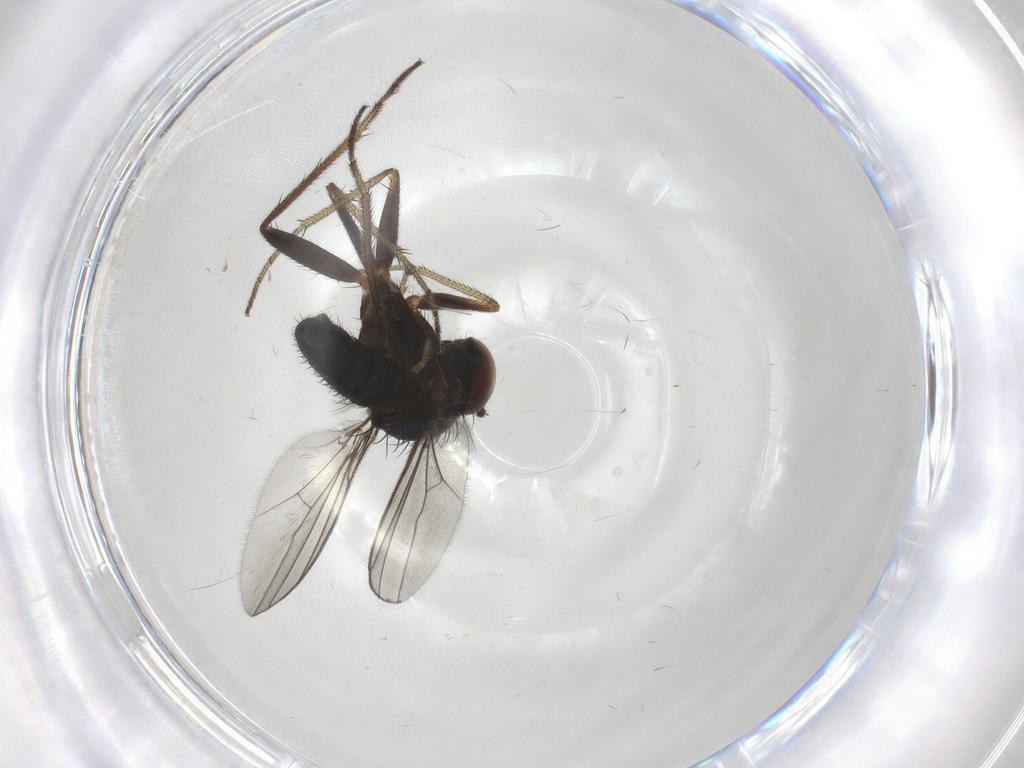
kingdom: Animalia
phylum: Arthropoda
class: Insecta
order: Diptera
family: Dolichopodidae
